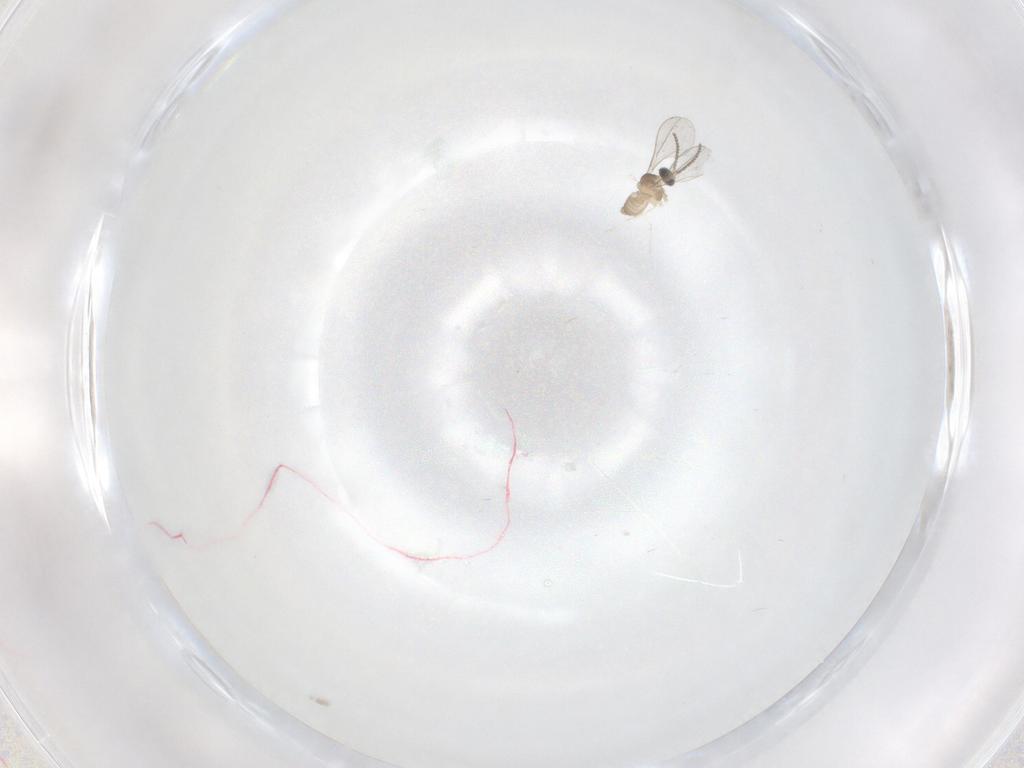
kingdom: Animalia
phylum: Arthropoda
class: Insecta
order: Diptera
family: Cecidomyiidae
